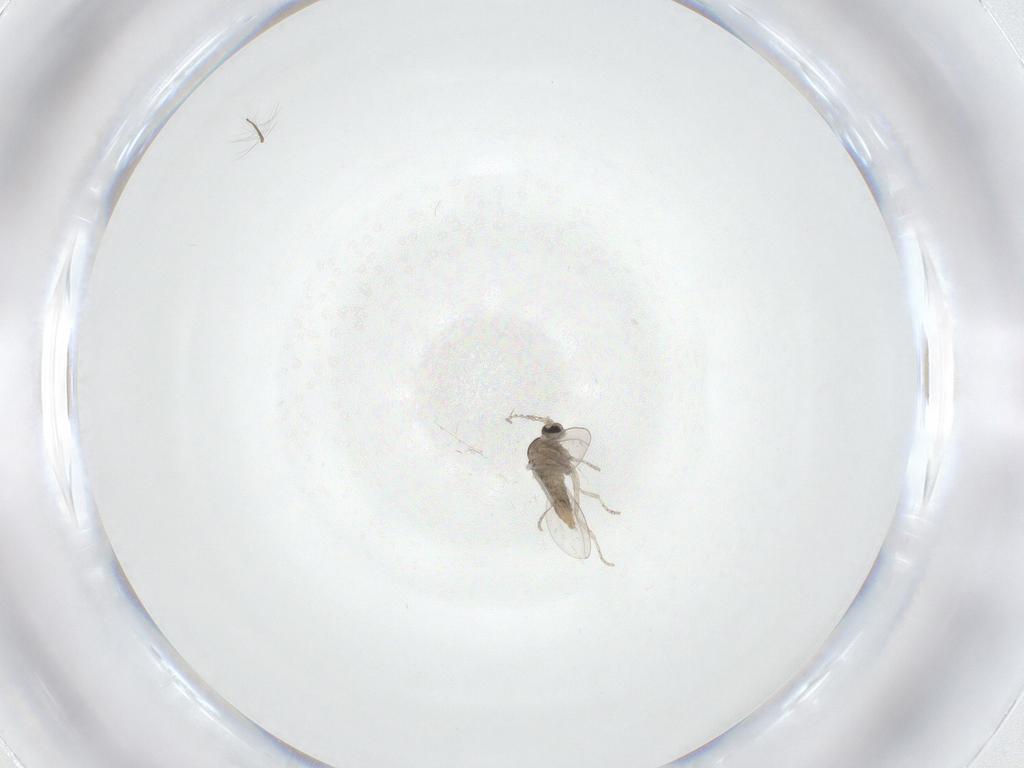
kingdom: Animalia
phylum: Arthropoda
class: Insecta
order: Diptera
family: Cecidomyiidae
